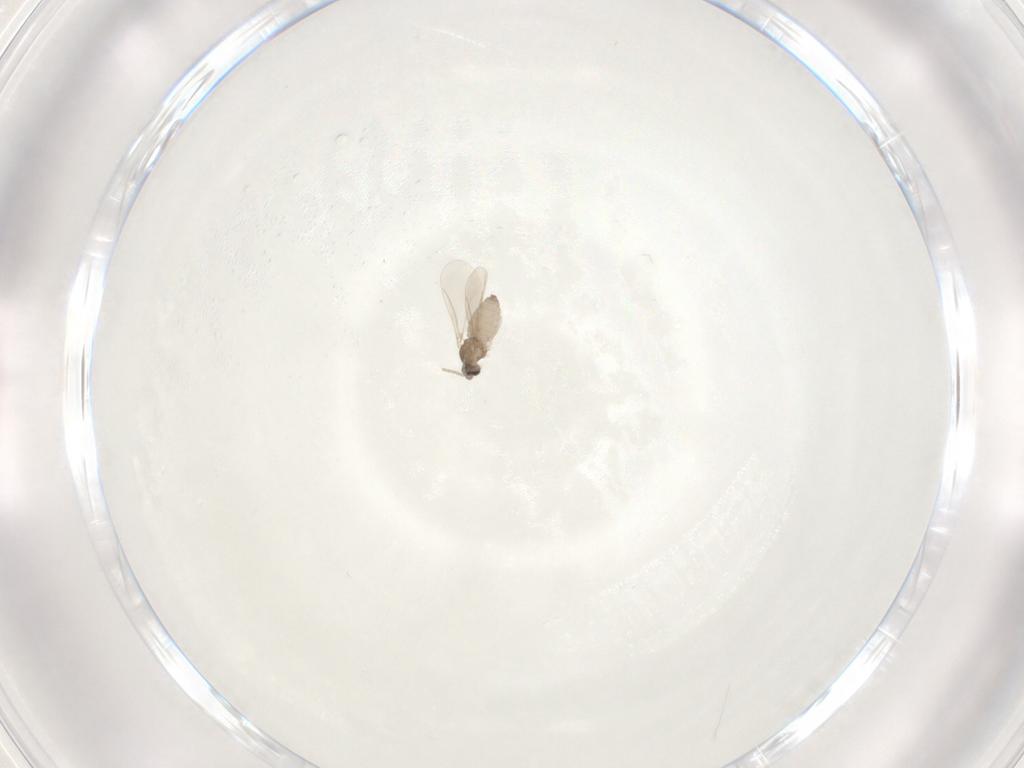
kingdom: Animalia
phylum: Arthropoda
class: Insecta
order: Diptera
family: Cecidomyiidae
